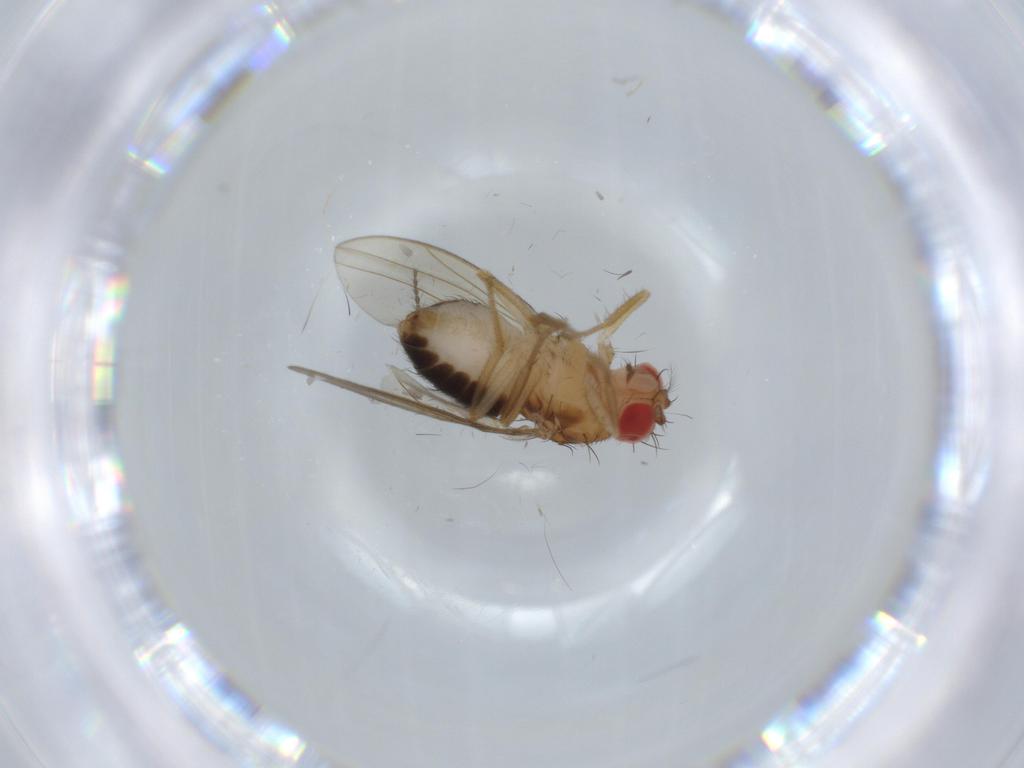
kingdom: Animalia
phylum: Arthropoda
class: Insecta
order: Diptera
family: Drosophilidae
